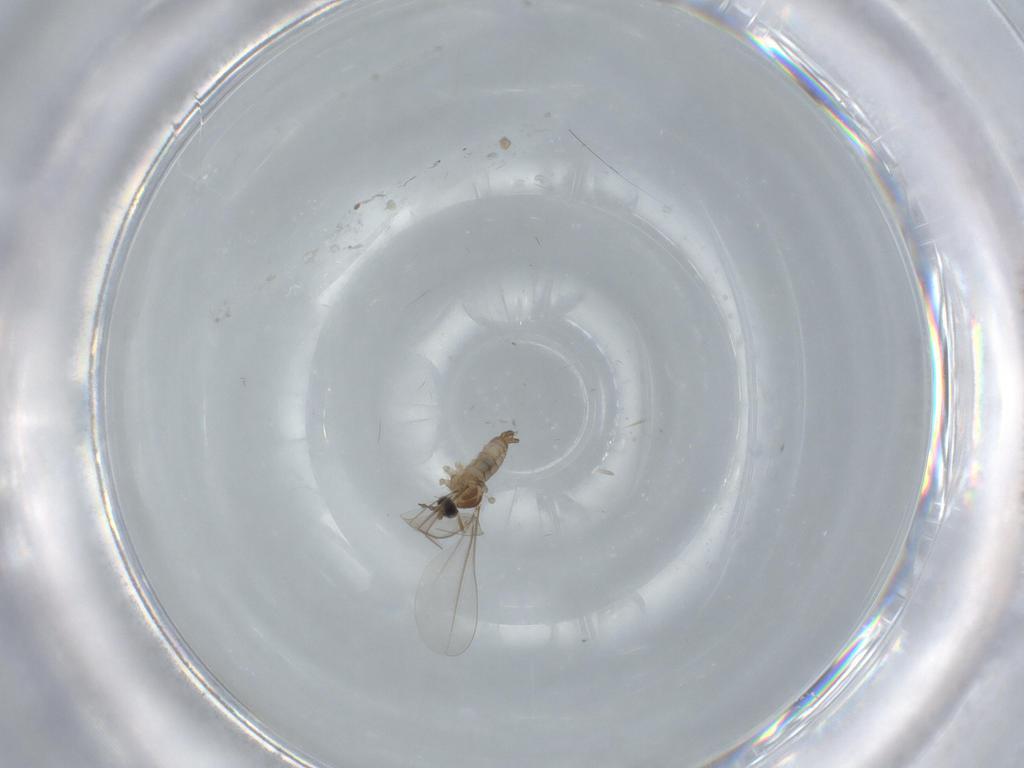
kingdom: Animalia
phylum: Arthropoda
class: Insecta
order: Diptera
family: Cecidomyiidae
